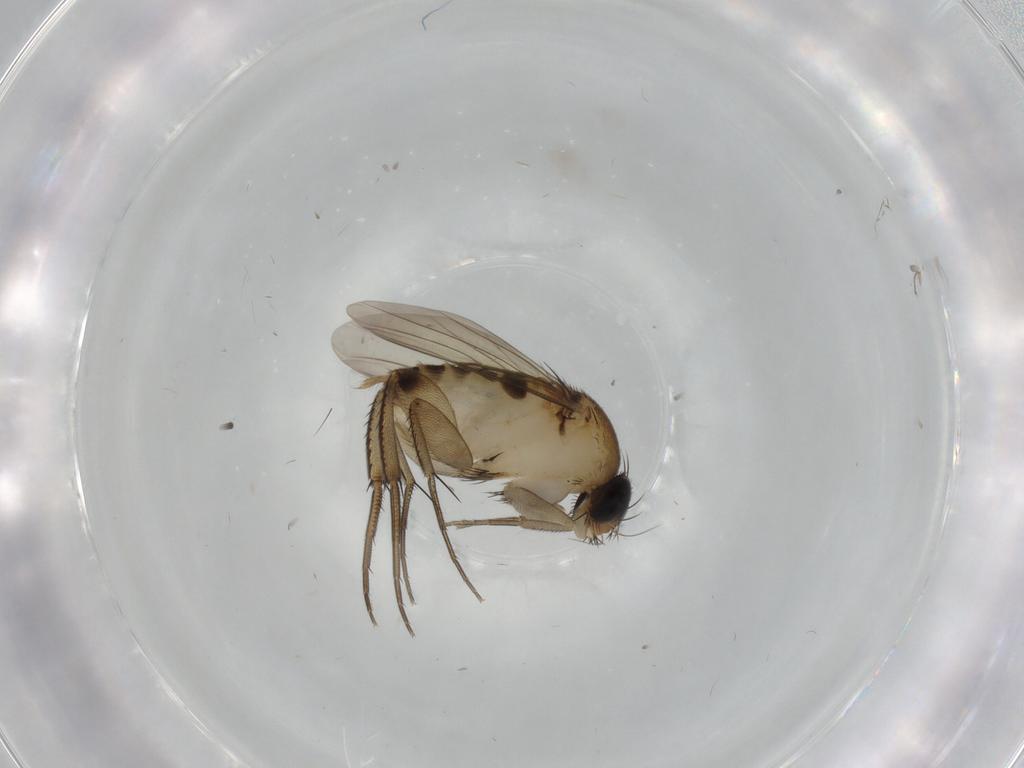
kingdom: Animalia
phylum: Arthropoda
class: Insecta
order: Diptera
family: Phoridae
